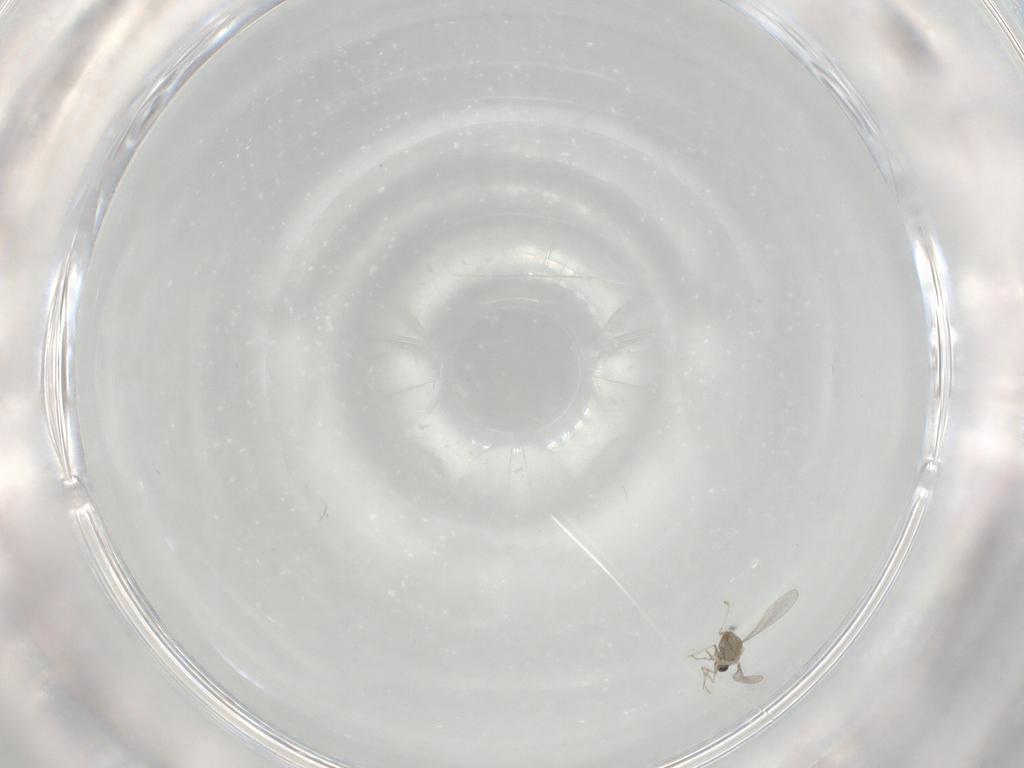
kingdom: Animalia
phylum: Arthropoda
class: Insecta
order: Diptera
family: Cecidomyiidae
